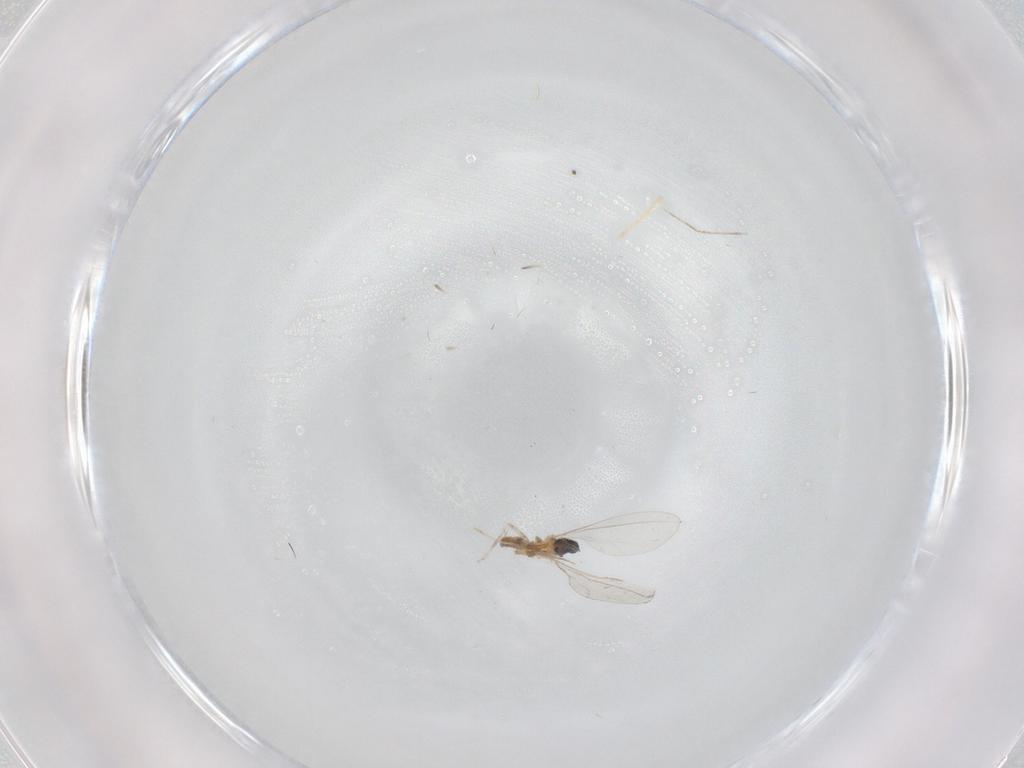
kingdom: Animalia
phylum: Arthropoda
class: Insecta
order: Diptera
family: Cecidomyiidae
